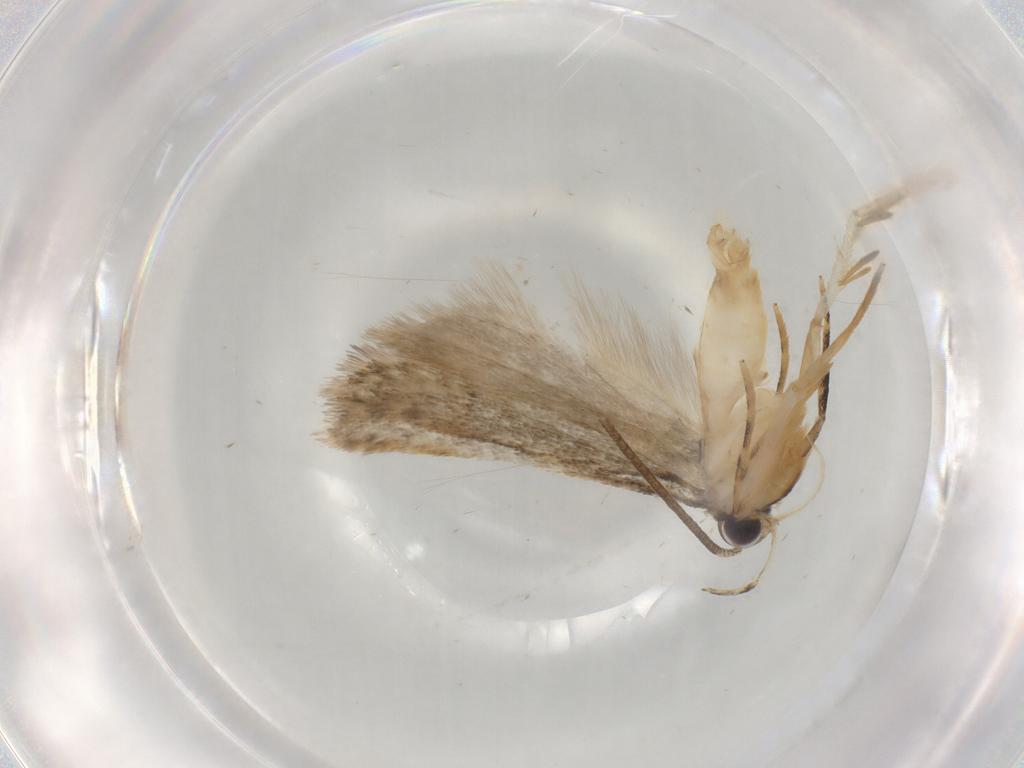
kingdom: Animalia
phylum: Arthropoda
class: Insecta
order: Lepidoptera
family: Autostichidae
